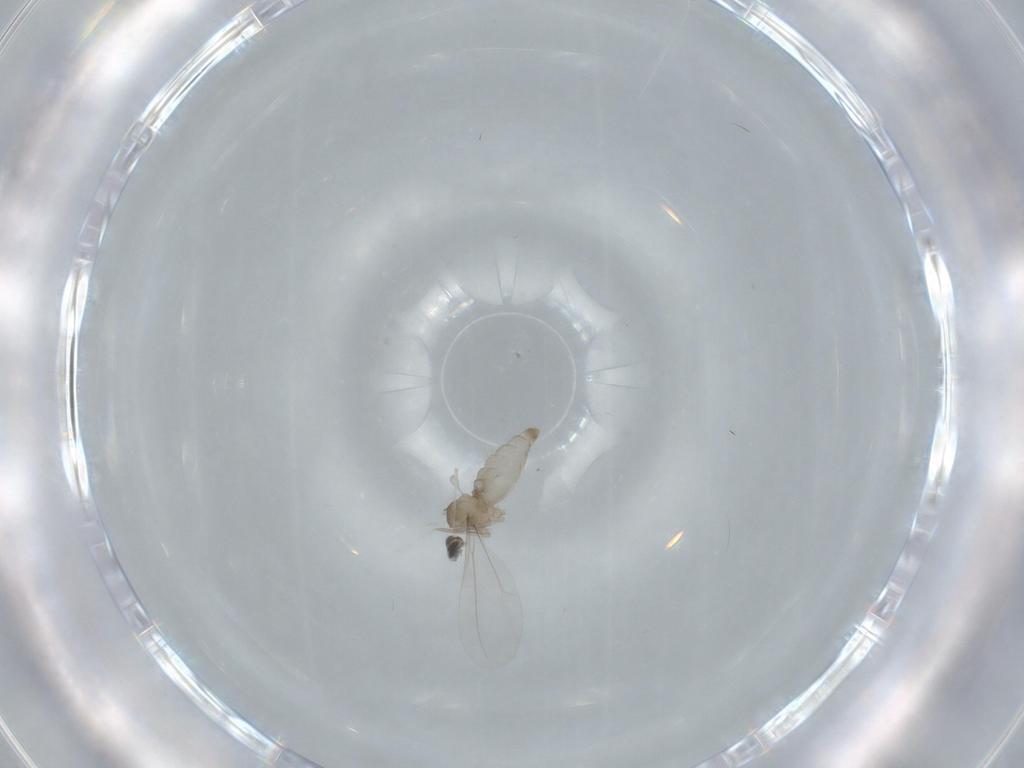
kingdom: Animalia
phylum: Arthropoda
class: Insecta
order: Diptera
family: Cecidomyiidae
